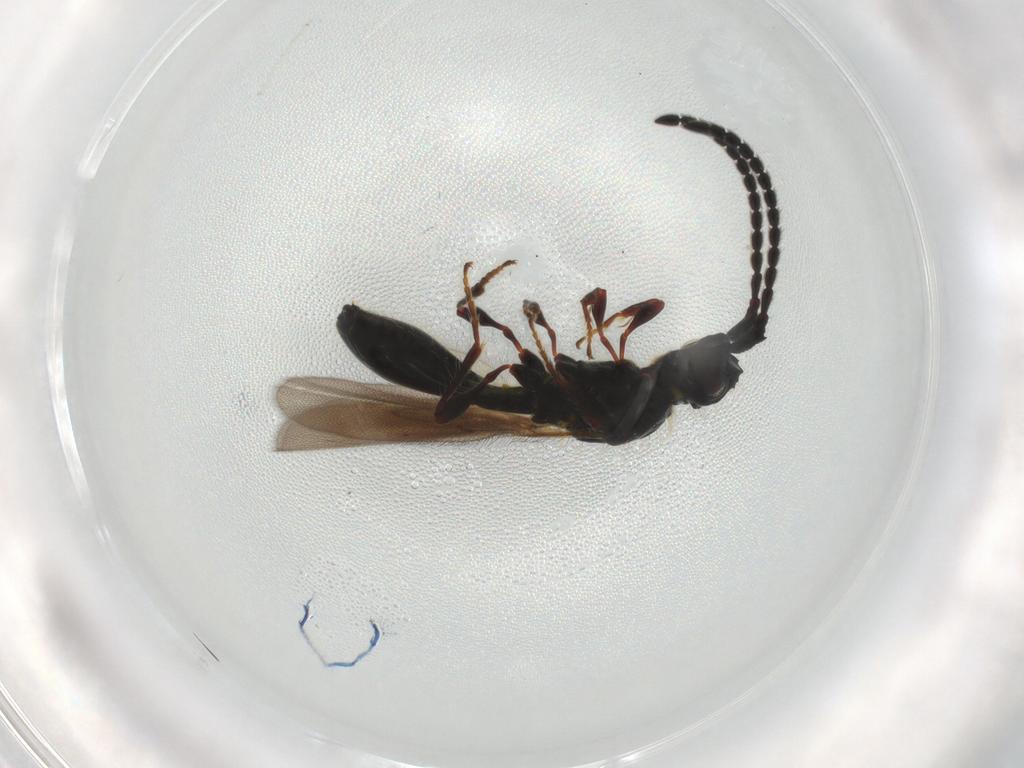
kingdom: Animalia
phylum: Arthropoda
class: Insecta
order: Hymenoptera
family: Diapriidae
